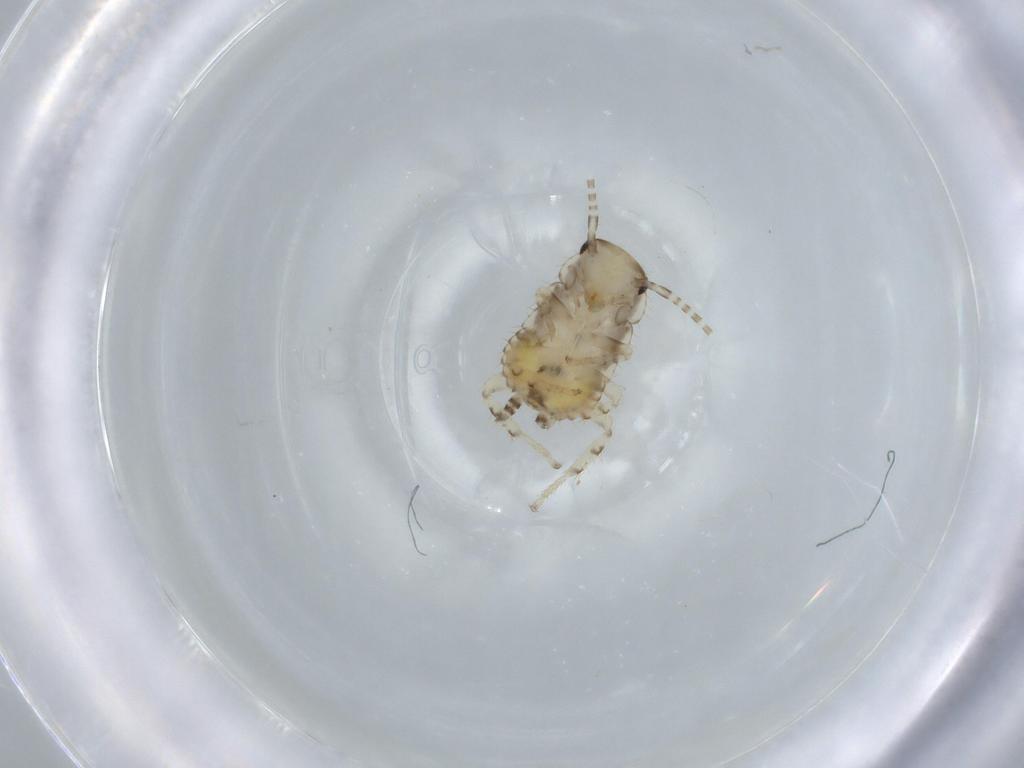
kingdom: Animalia
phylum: Arthropoda
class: Insecta
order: Blattodea
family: Ectobiidae
